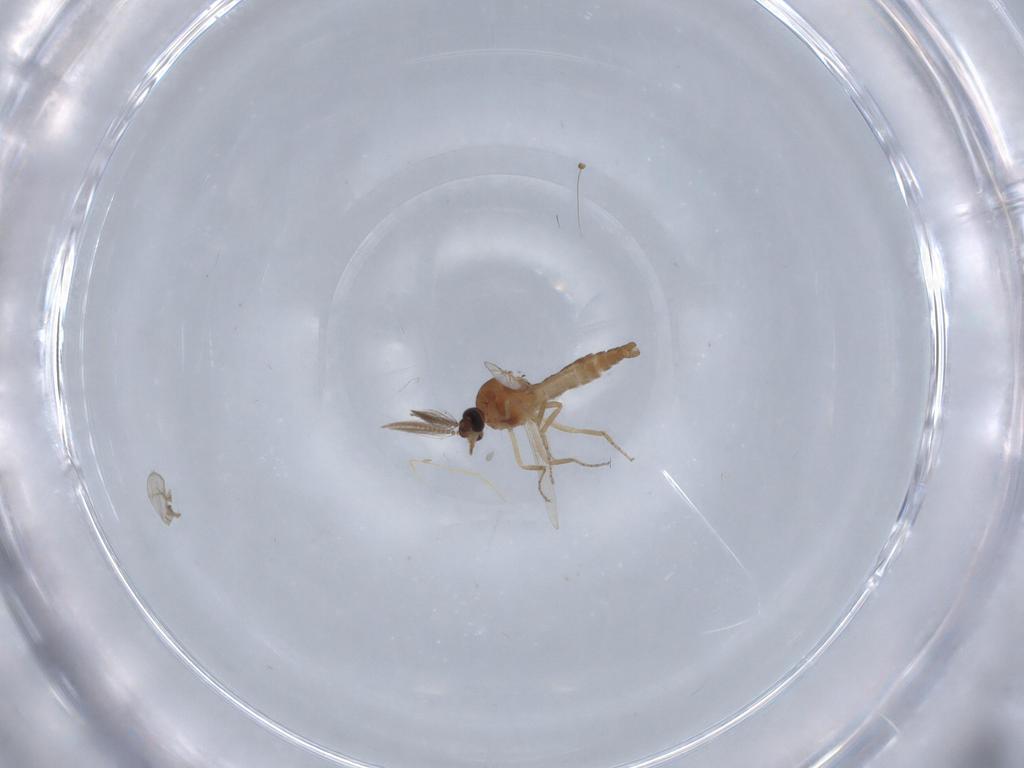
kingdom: Animalia
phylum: Arthropoda
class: Insecta
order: Diptera
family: Ceratopogonidae
